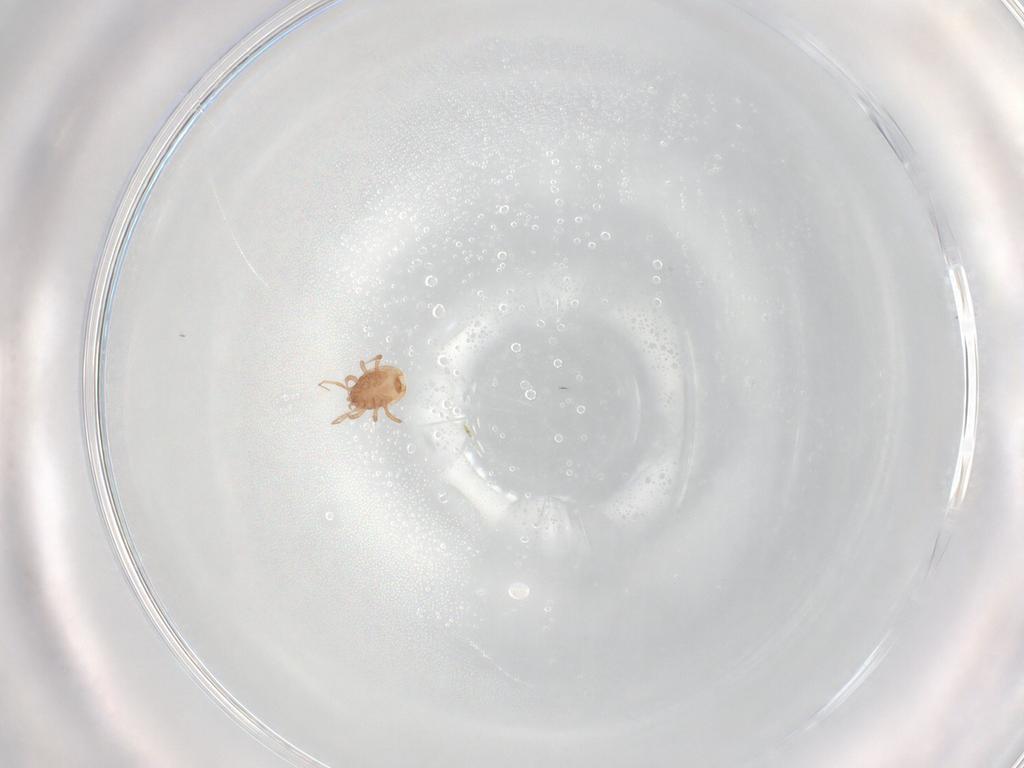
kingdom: Animalia
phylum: Arthropoda
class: Arachnida
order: Mesostigmata
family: Blattisociidae
